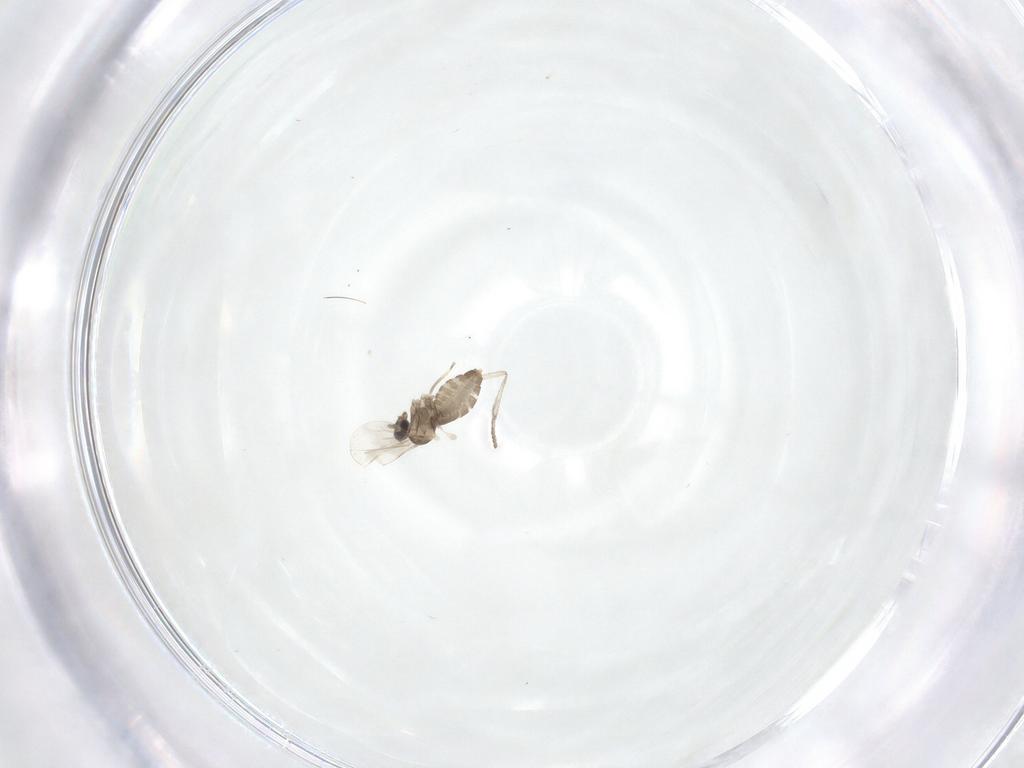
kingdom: Animalia
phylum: Arthropoda
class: Insecta
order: Diptera
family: Cecidomyiidae
